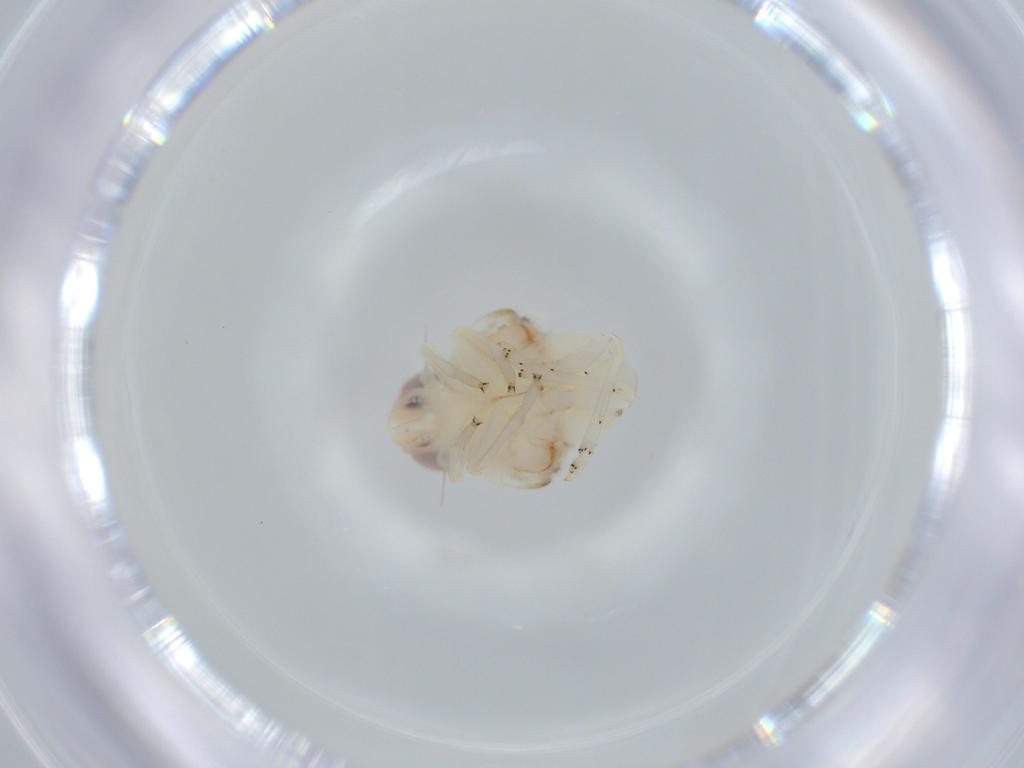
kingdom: Animalia
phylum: Arthropoda
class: Insecta
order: Hemiptera
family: Nogodinidae
